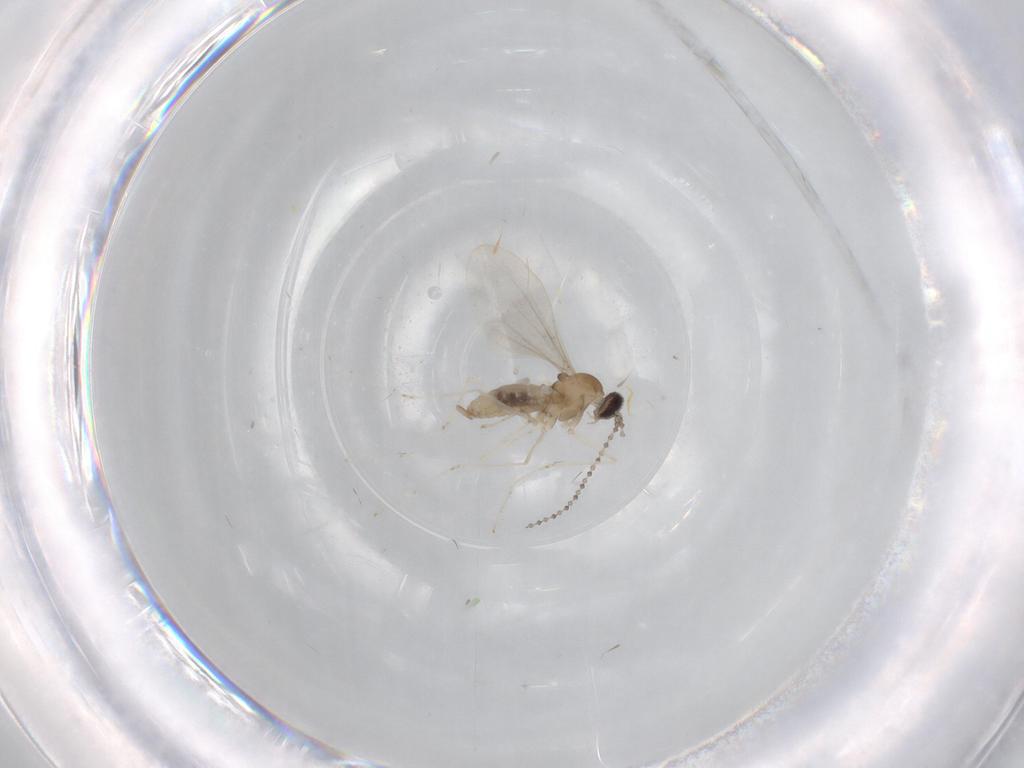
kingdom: Animalia
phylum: Arthropoda
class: Insecta
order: Diptera
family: Cecidomyiidae
